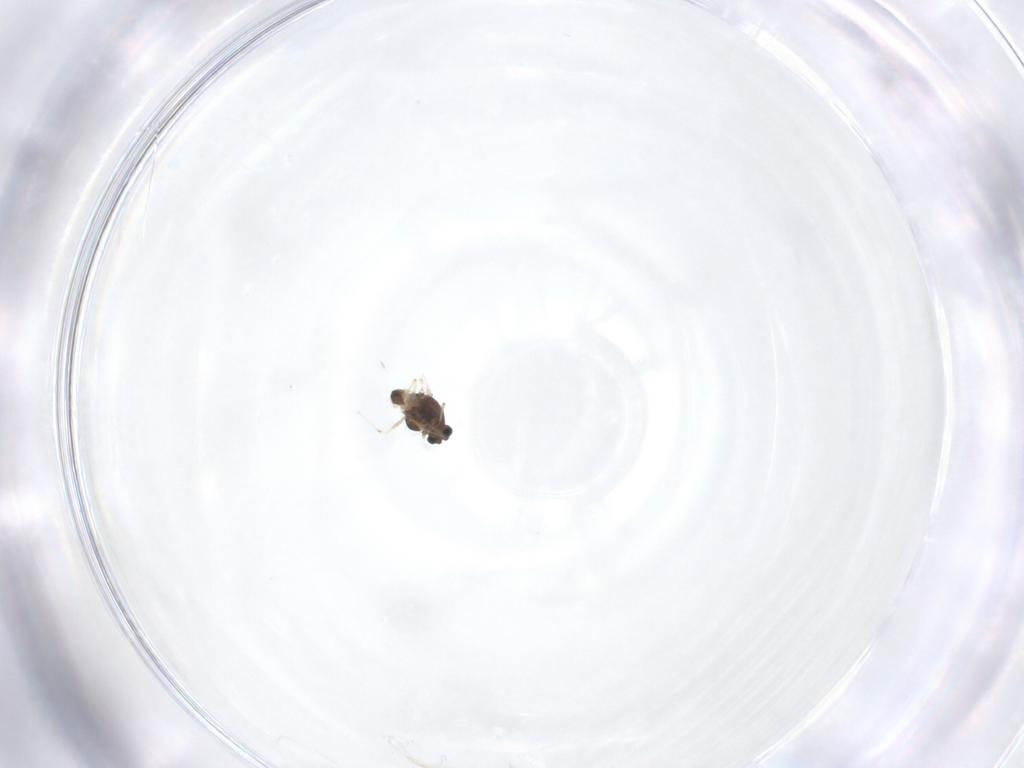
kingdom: Animalia
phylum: Arthropoda
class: Insecta
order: Diptera
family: Chironomidae
